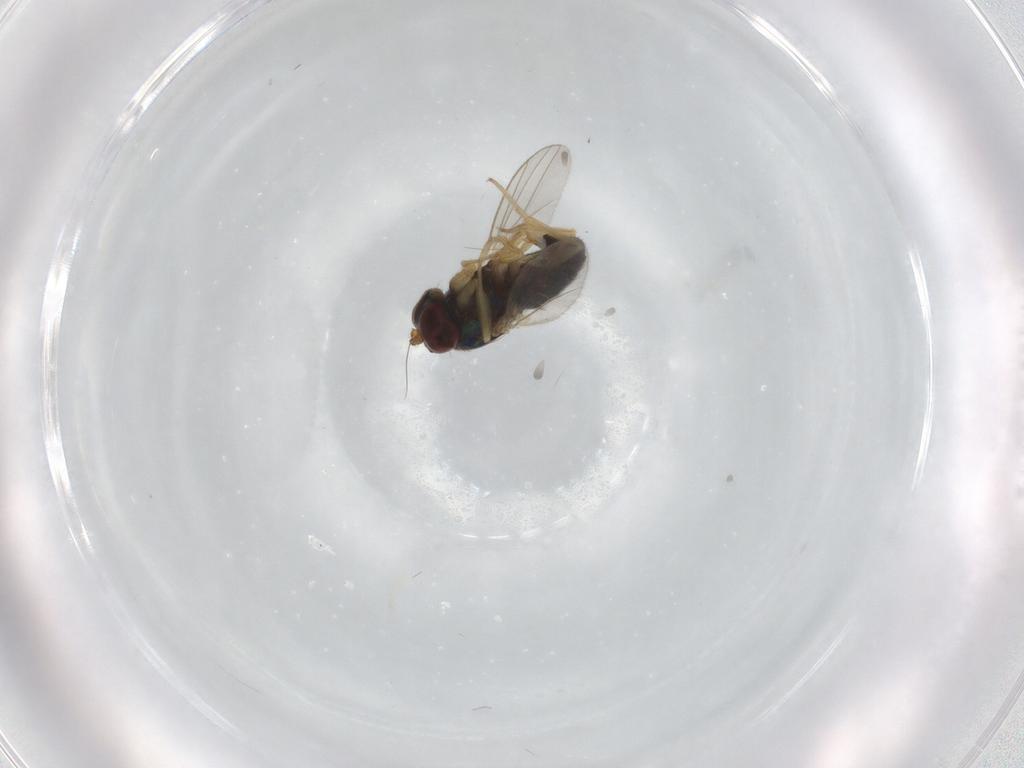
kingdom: Animalia
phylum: Arthropoda
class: Insecta
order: Diptera
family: Dolichopodidae
